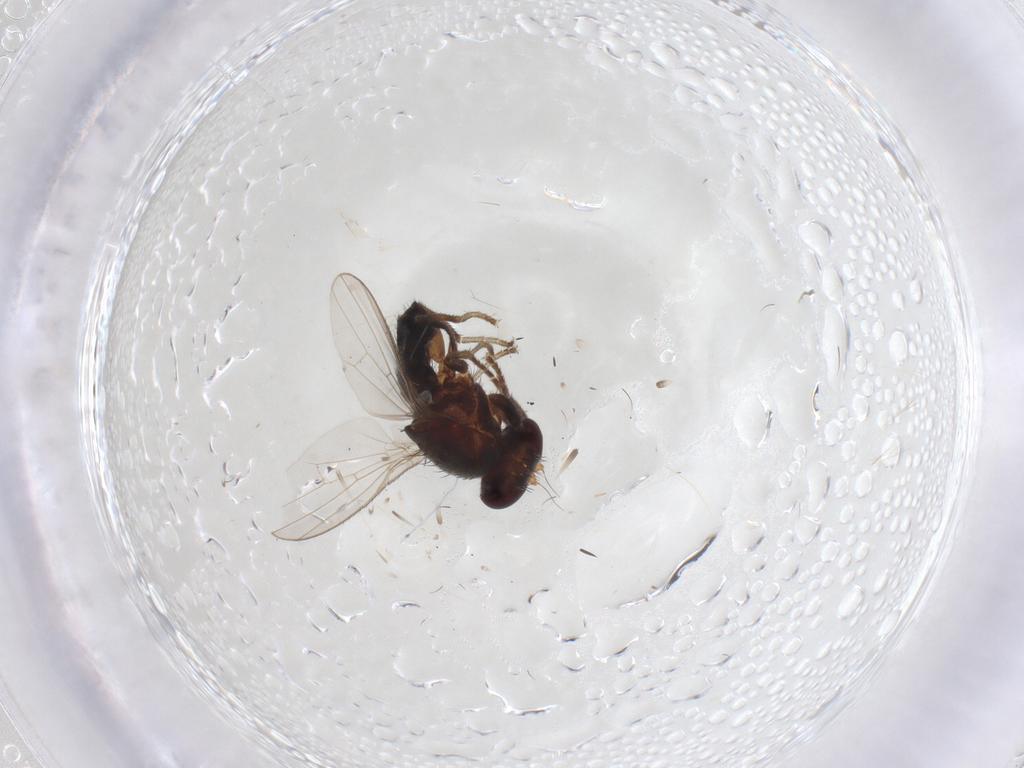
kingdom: Animalia
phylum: Arthropoda
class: Insecta
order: Diptera
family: Heleomyzidae
